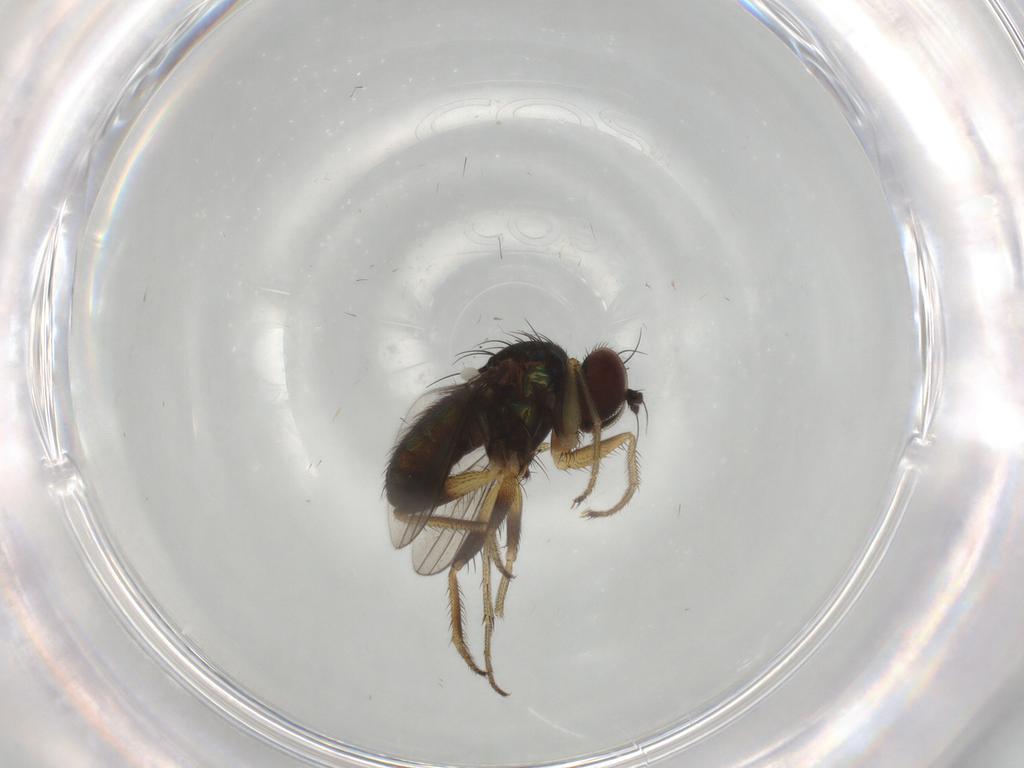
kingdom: Animalia
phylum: Arthropoda
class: Insecta
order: Diptera
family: Dolichopodidae
